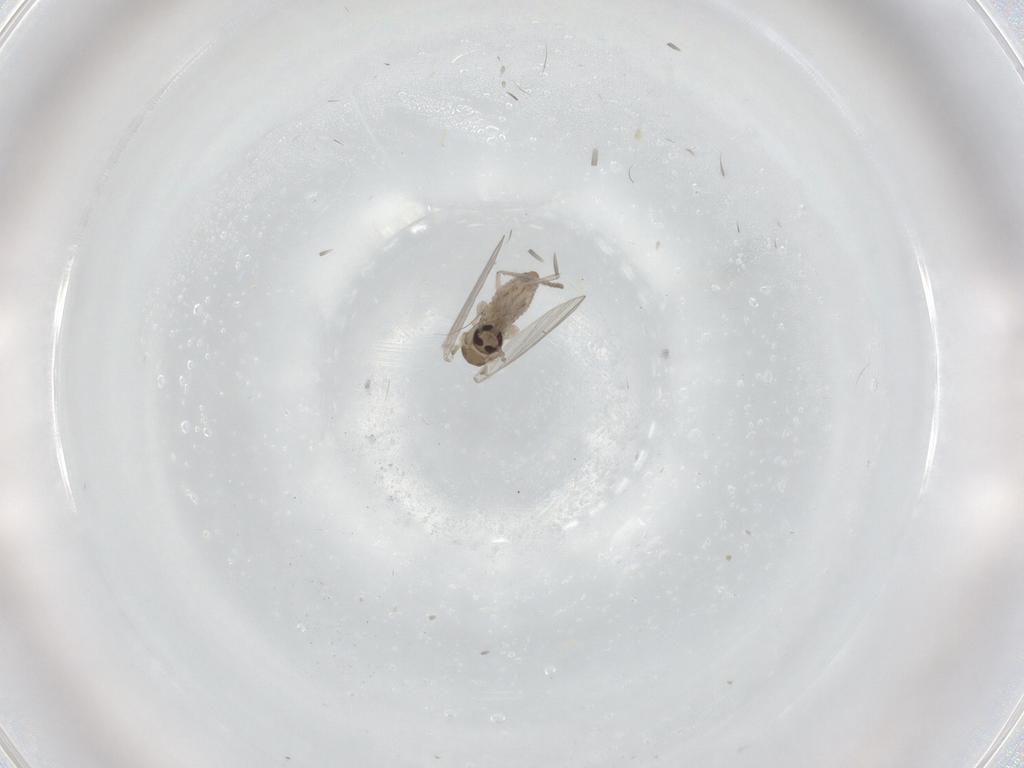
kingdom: Animalia
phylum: Arthropoda
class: Insecta
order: Diptera
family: Psychodidae
